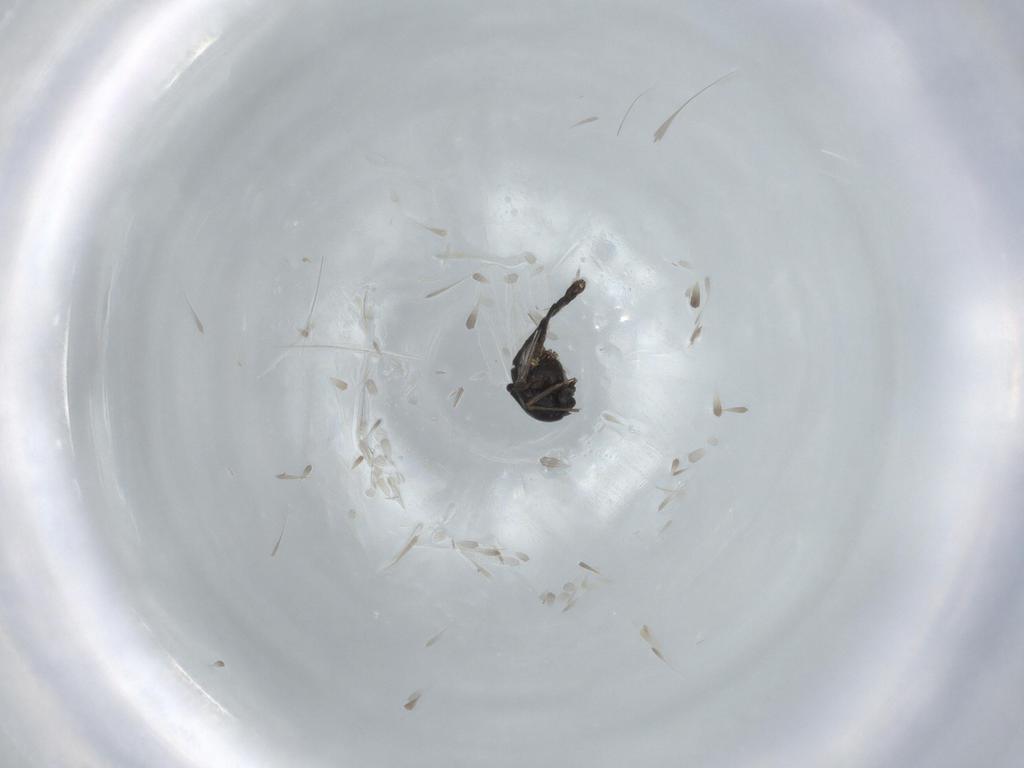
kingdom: Animalia
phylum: Arthropoda
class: Insecta
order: Diptera
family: Chironomidae
